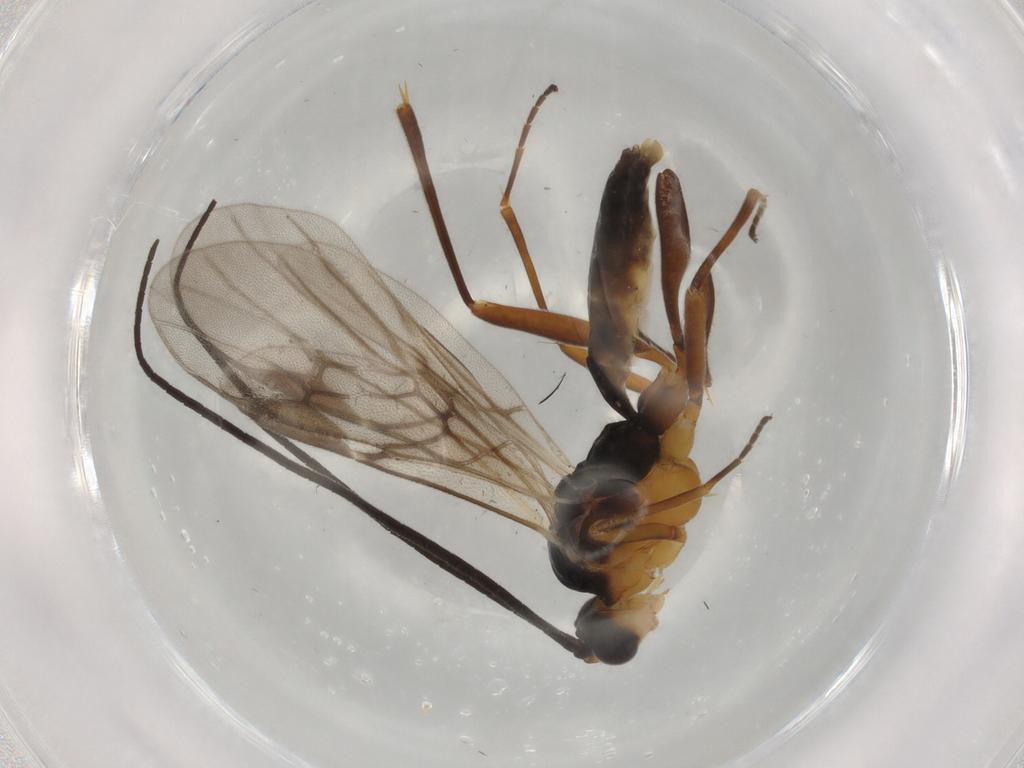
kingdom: Animalia
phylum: Arthropoda
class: Insecta
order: Hymenoptera
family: Braconidae
